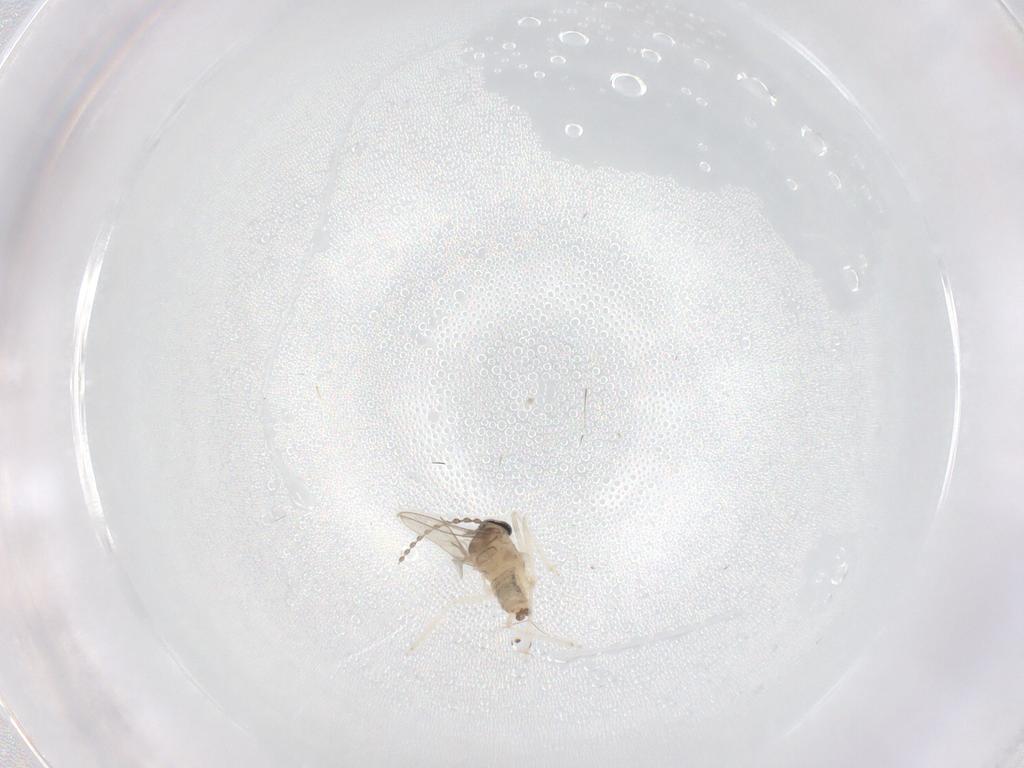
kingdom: Animalia
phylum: Arthropoda
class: Insecta
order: Diptera
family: Cecidomyiidae
